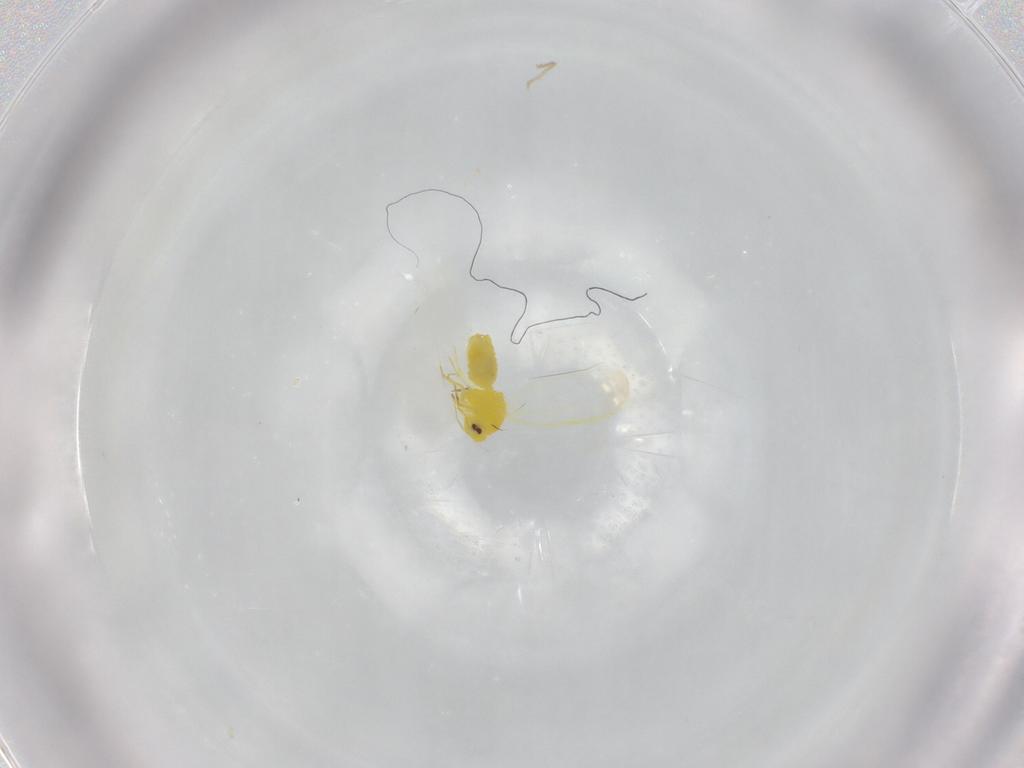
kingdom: Animalia
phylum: Arthropoda
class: Insecta
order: Hemiptera
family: Aleyrodidae
